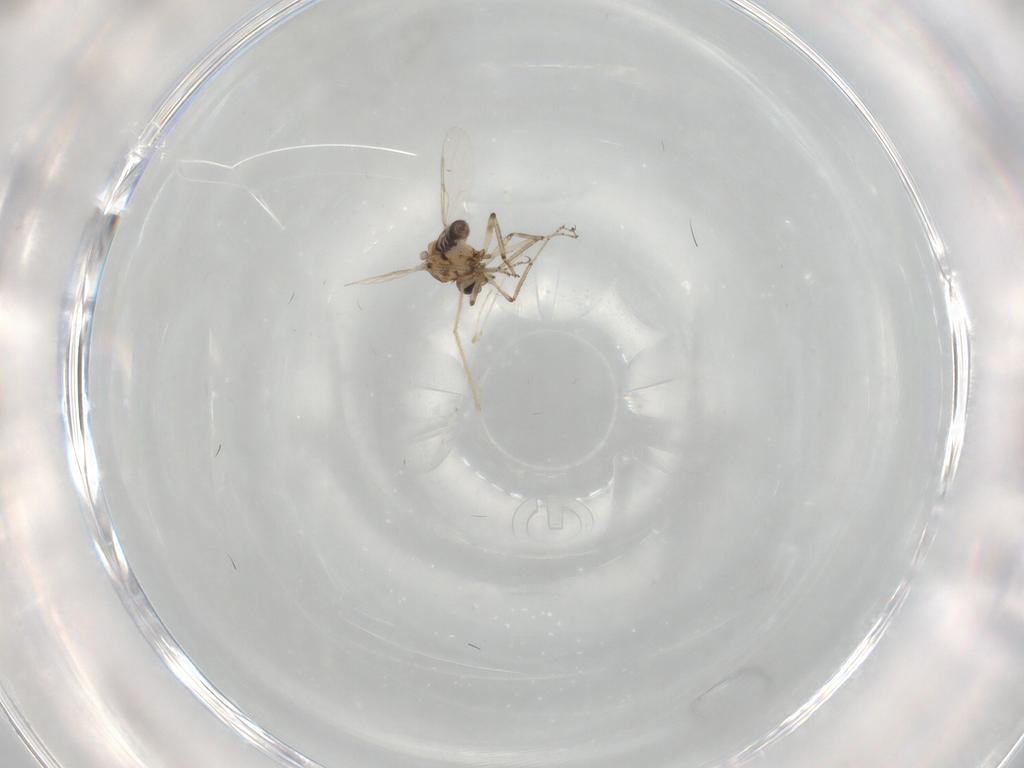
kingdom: Animalia
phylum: Arthropoda
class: Insecta
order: Diptera
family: Ceratopogonidae
